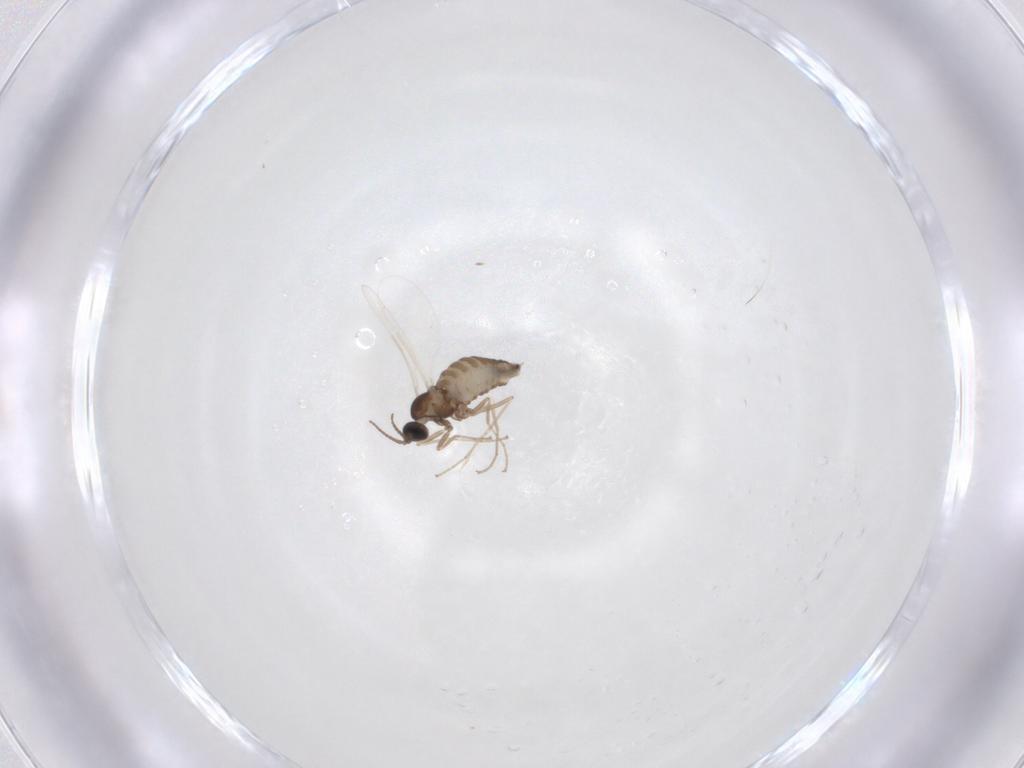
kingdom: Animalia
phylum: Arthropoda
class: Insecta
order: Diptera
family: Cecidomyiidae
